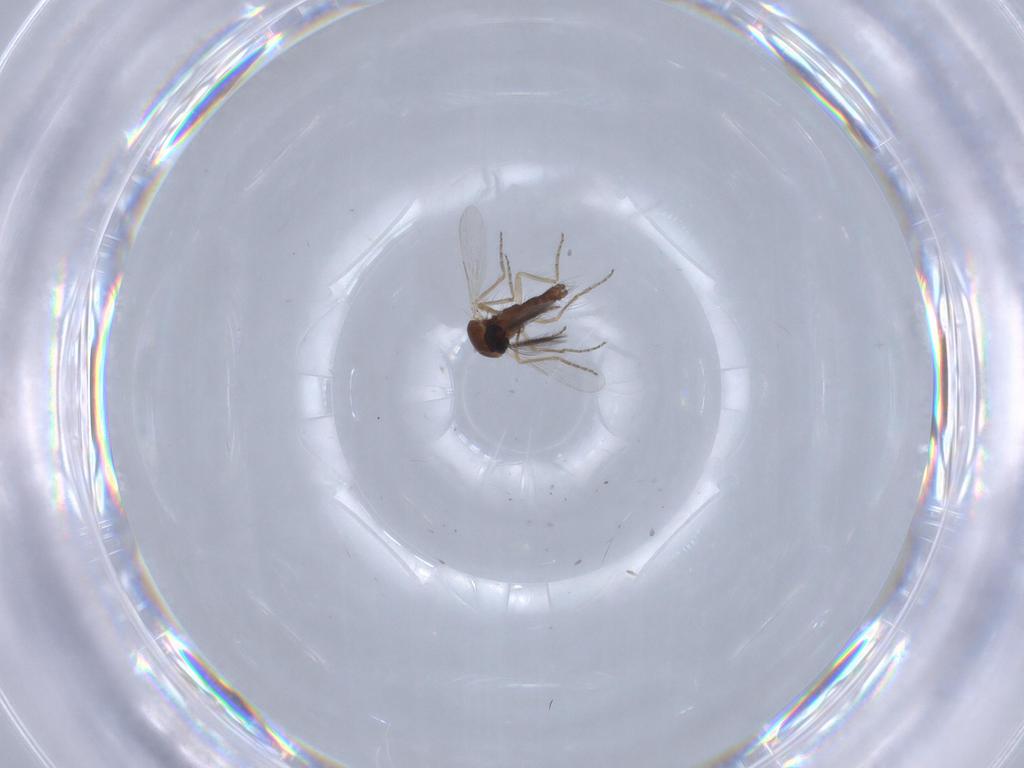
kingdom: Animalia
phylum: Arthropoda
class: Insecta
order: Diptera
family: Ceratopogonidae
